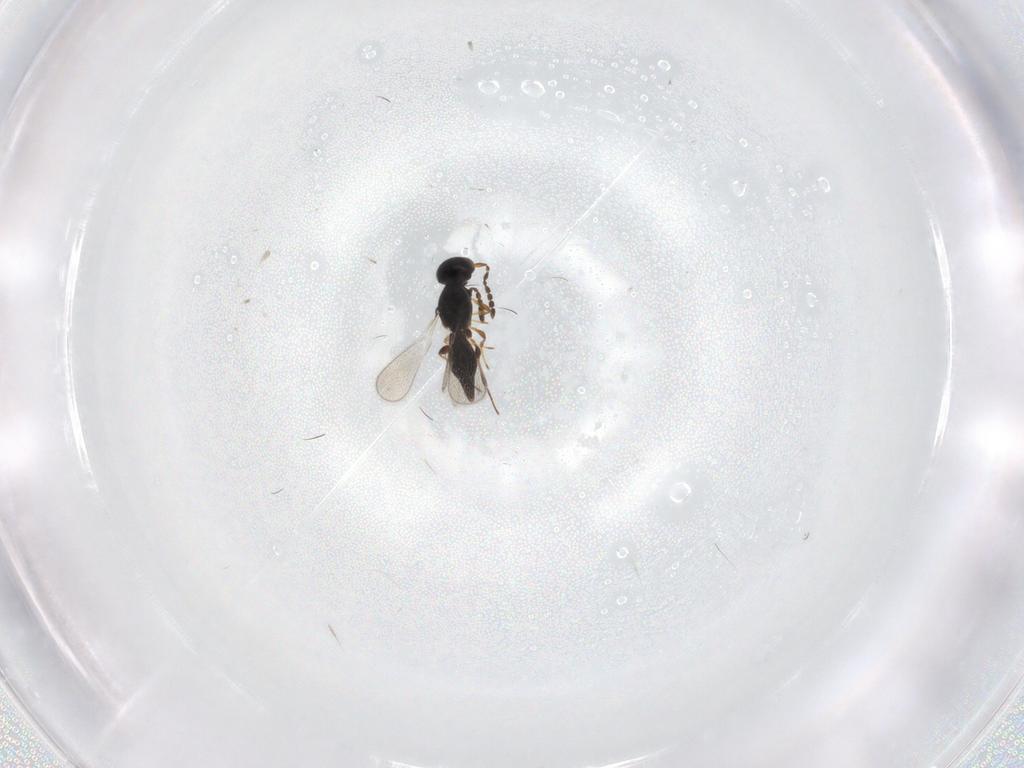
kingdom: Animalia
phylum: Arthropoda
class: Insecta
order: Hymenoptera
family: Platygastridae
